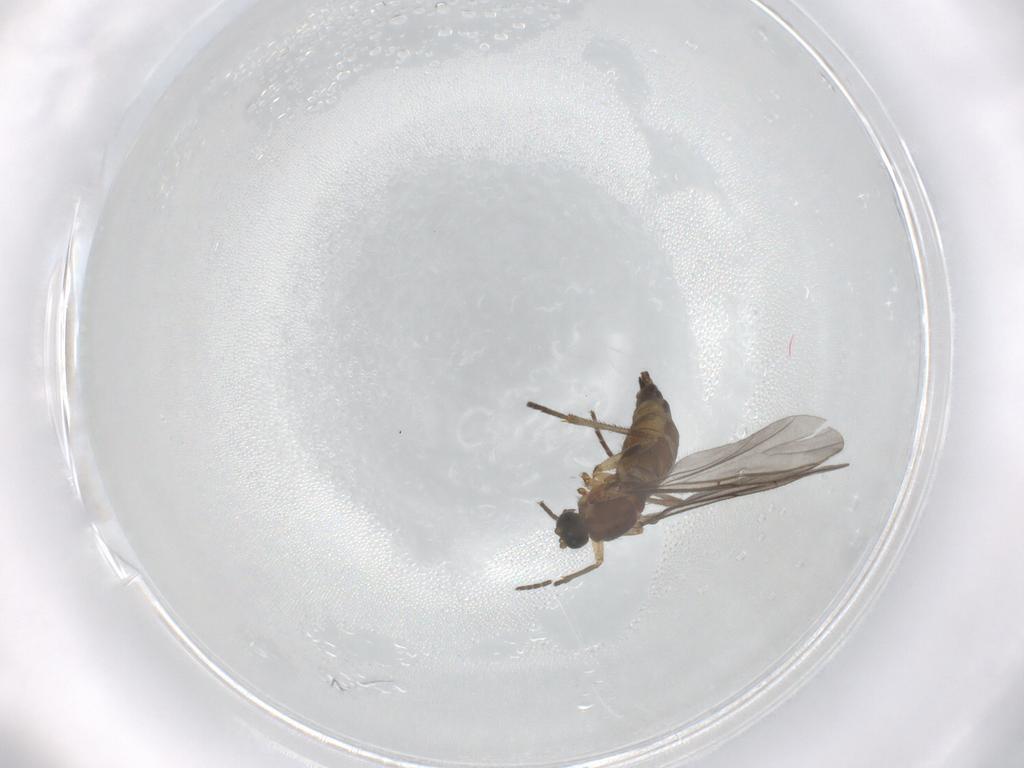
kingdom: Animalia
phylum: Arthropoda
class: Insecta
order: Diptera
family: Sciaridae
